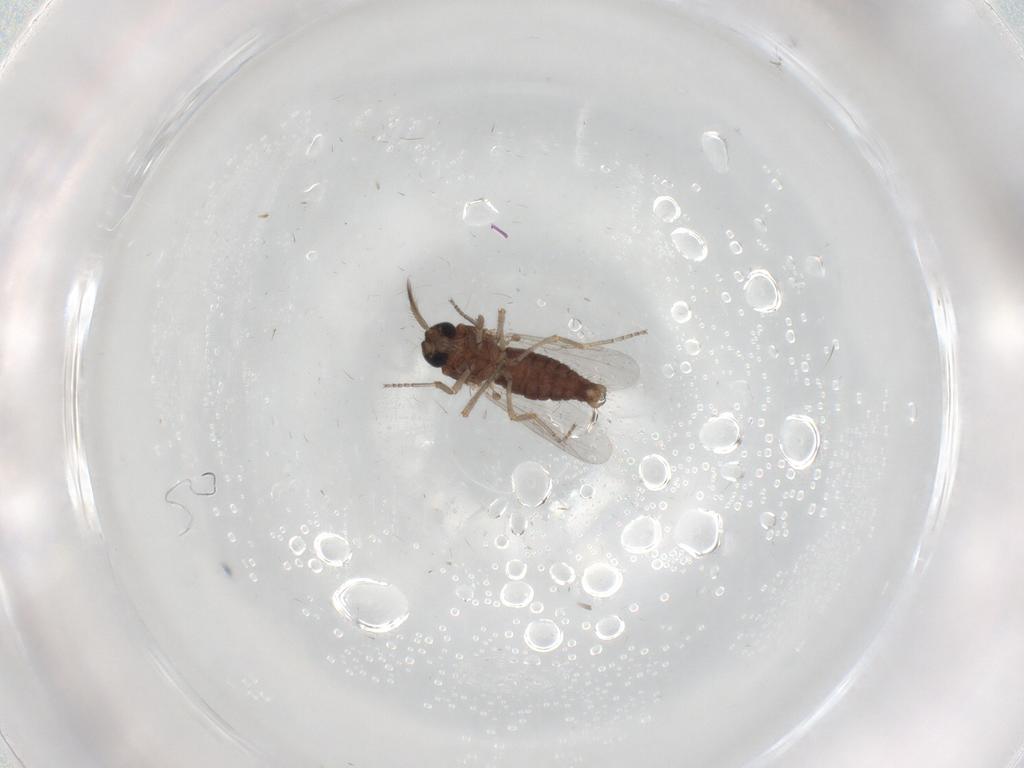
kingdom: Animalia
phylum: Arthropoda
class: Insecta
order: Diptera
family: Ceratopogonidae
